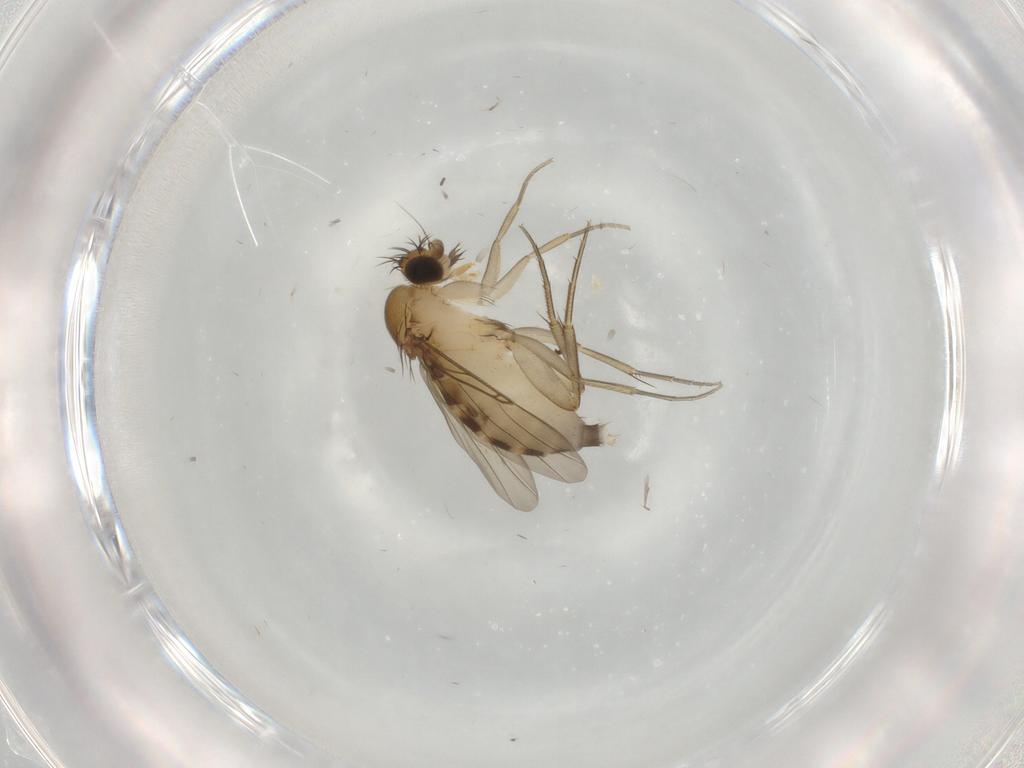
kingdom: Animalia
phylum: Arthropoda
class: Insecta
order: Diptera
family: Phoridae
